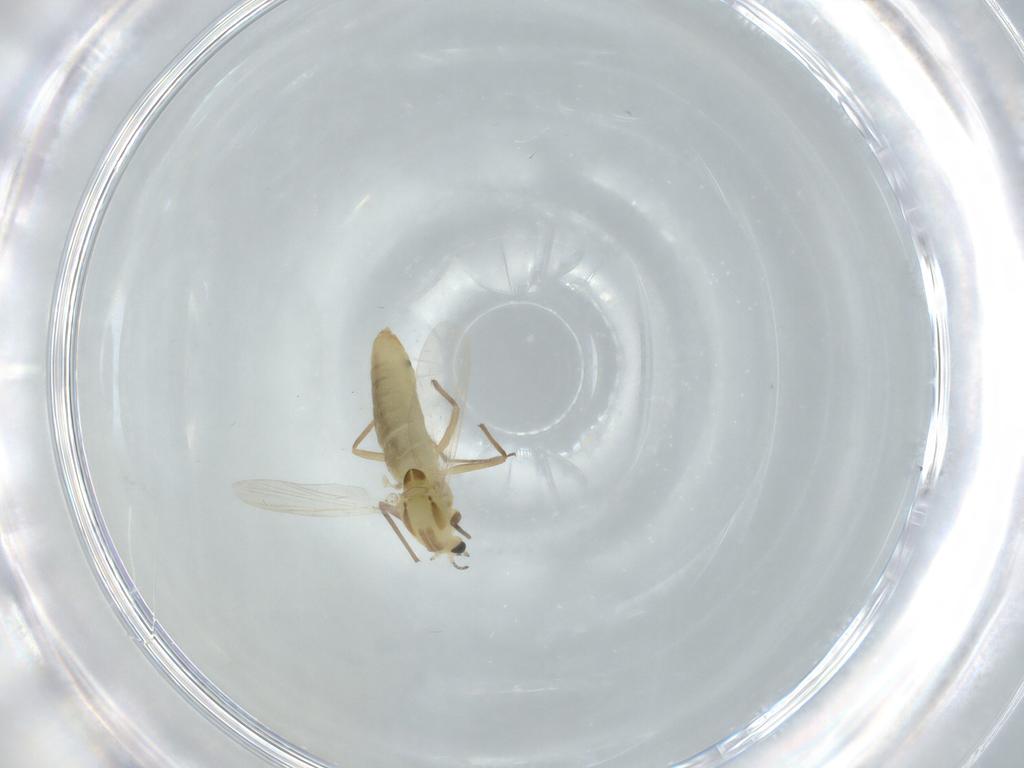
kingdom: Animalia
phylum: Arthropoda
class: Insecta
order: Diptera
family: Chironomidae
